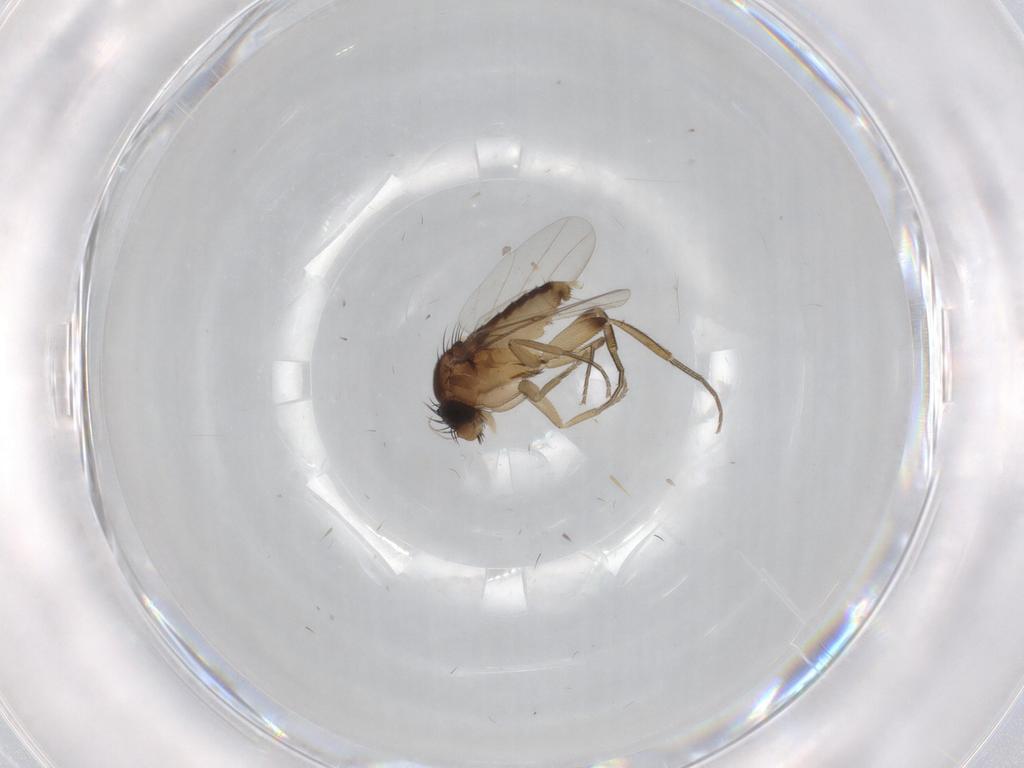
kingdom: Animalia
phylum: Arthropoda
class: Insecta
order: Diptera
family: Phoridae
